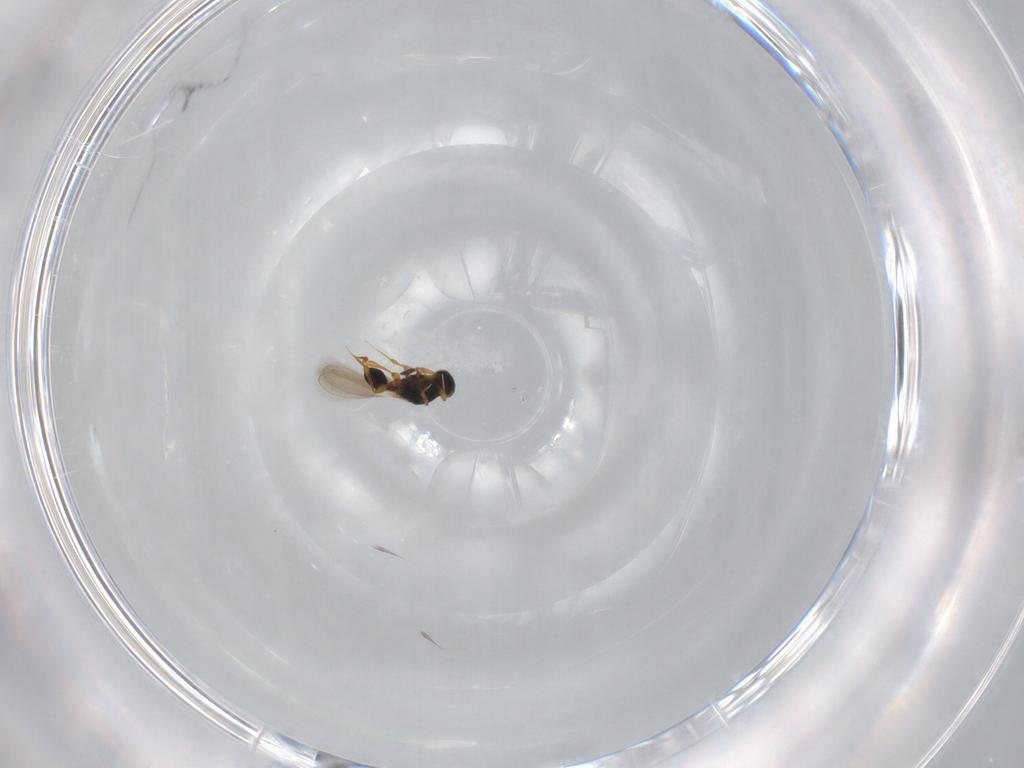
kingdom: Animalia
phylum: Arthropoda
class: Insecta
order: Hymenoptera
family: Platygastridae
